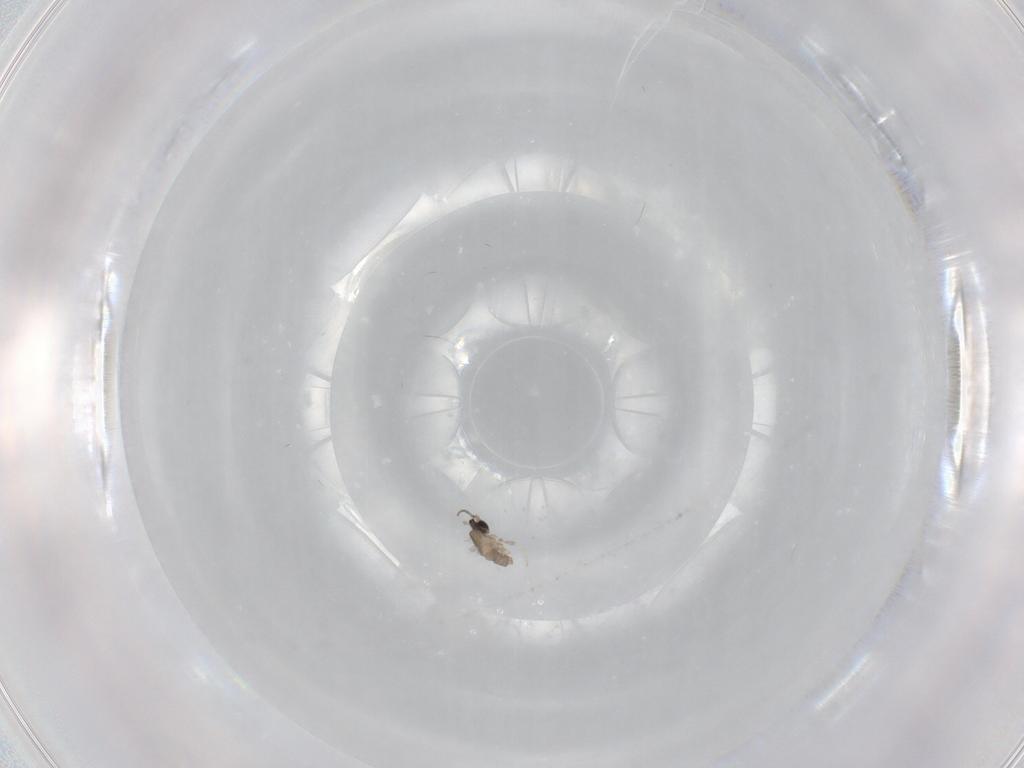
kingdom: Animalia
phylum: Arthropoda
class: Insecta
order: Diptera
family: Cecidomyiidae
